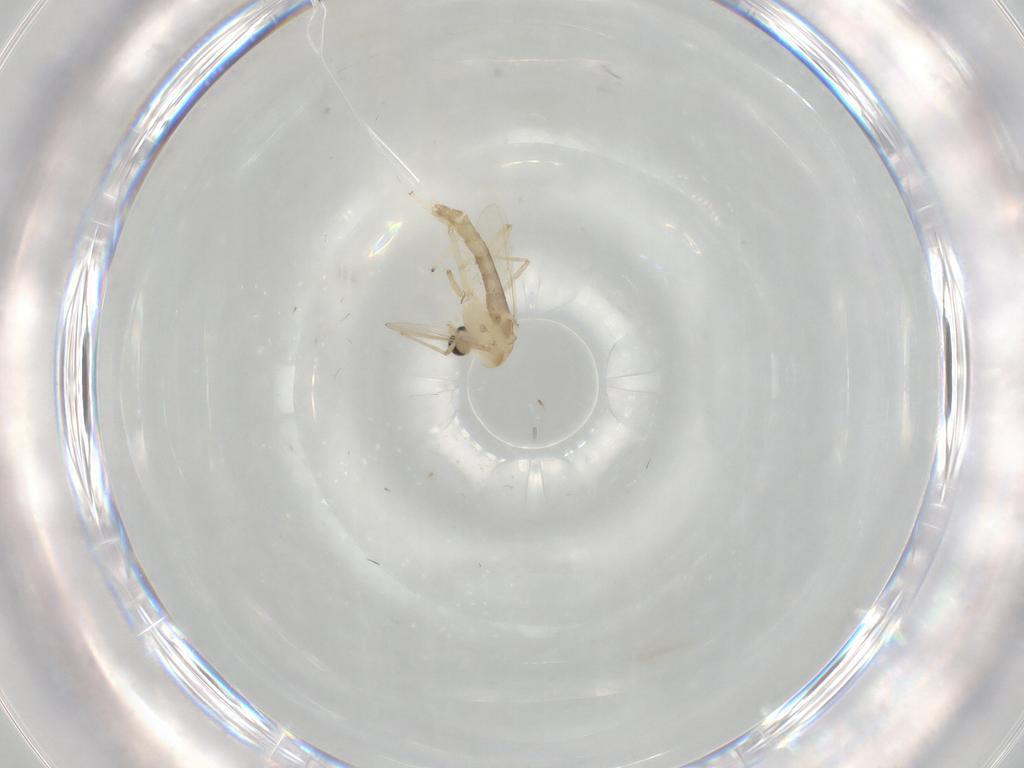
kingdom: Animalia
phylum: Arthropoda
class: Insecta
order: Diptera
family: Chironomidae
